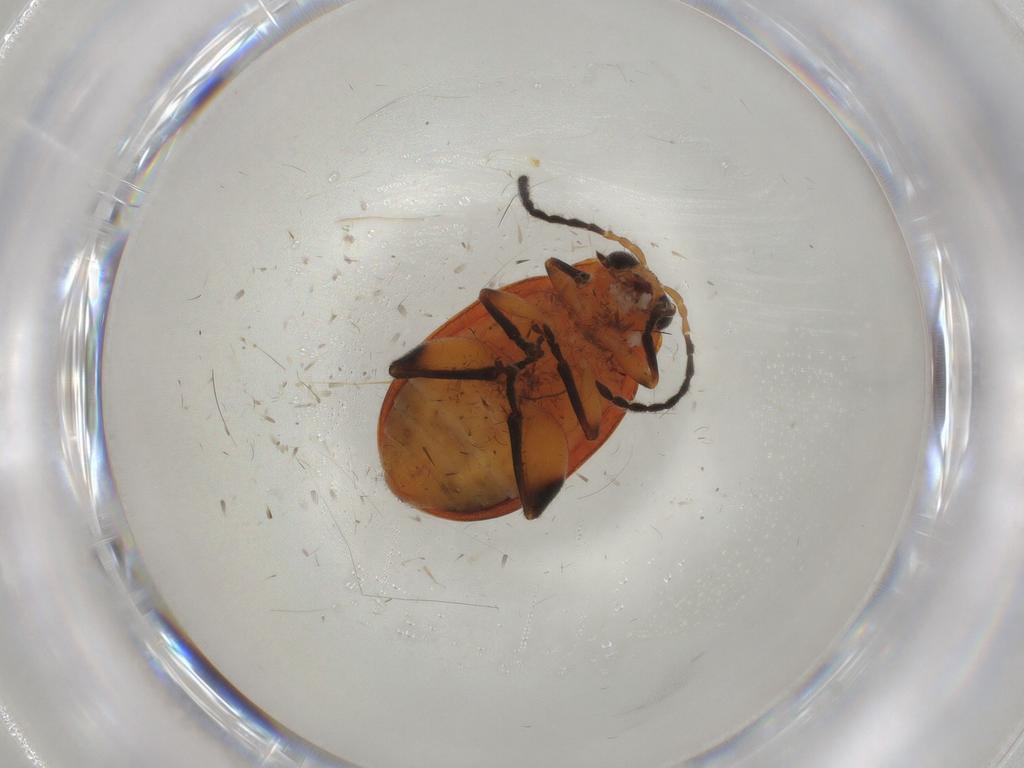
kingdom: Animalia
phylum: Arthropoda
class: Insecta
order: Coleoptera
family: Chrysomelidae
